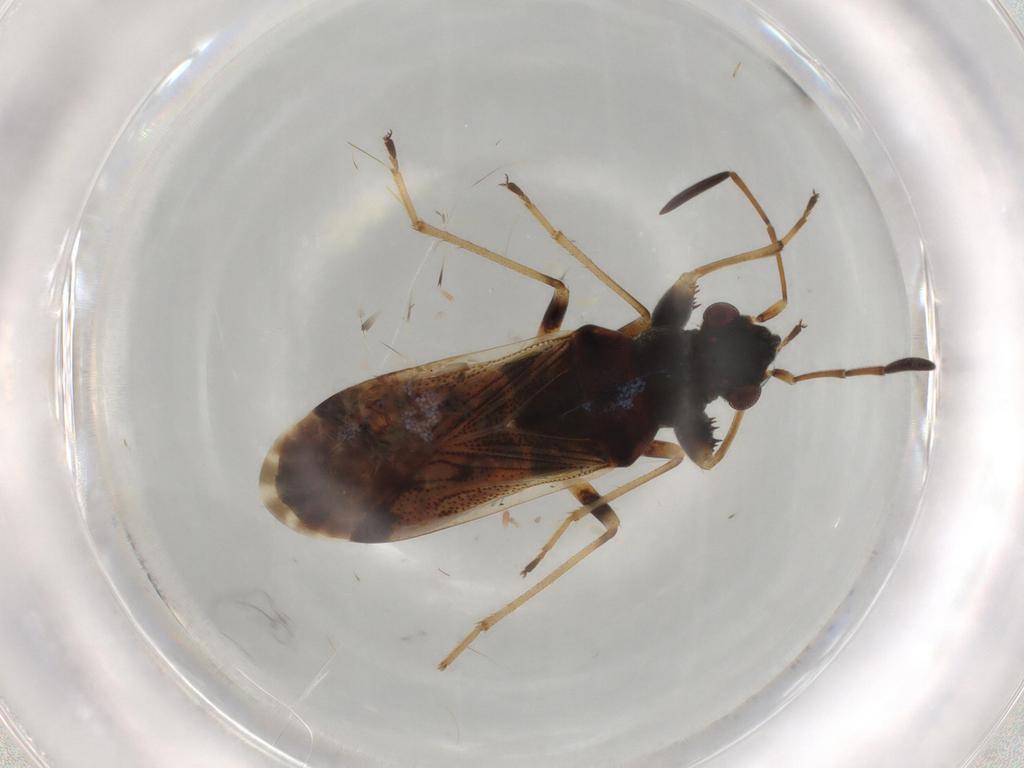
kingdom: Animalia
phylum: Arthropoda
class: Insecta
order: Hemiptera
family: Rhyparochromidae
